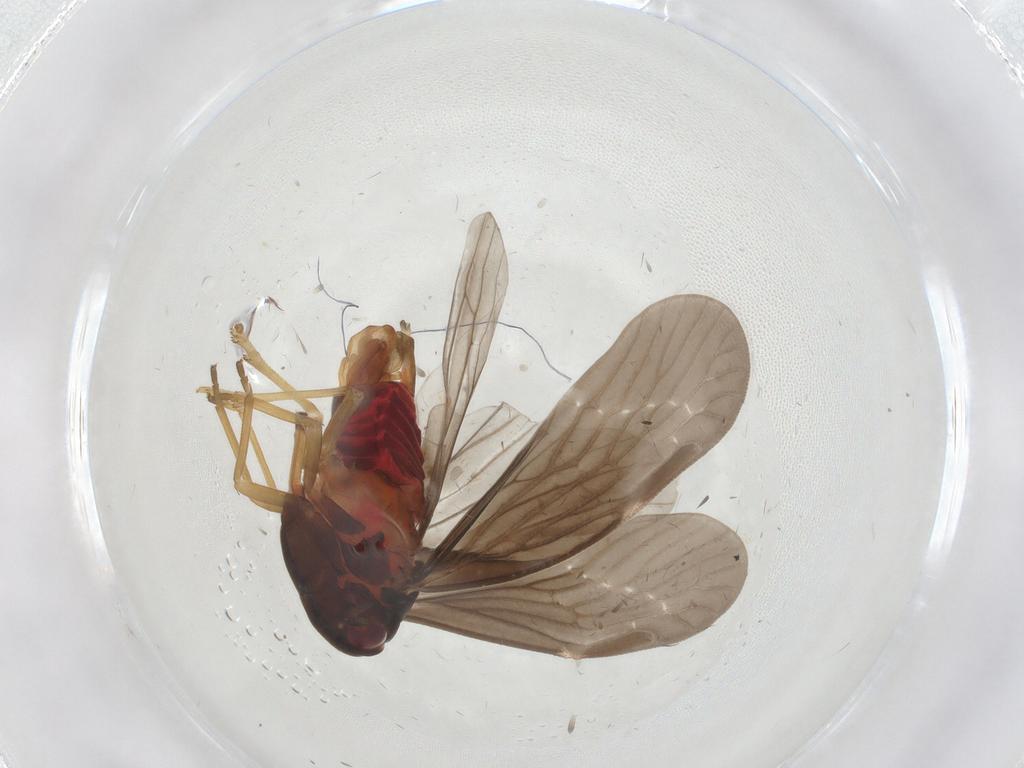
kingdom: Animalia
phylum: Arthropoda
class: Insecta
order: Hemiptera
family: Derbidae
